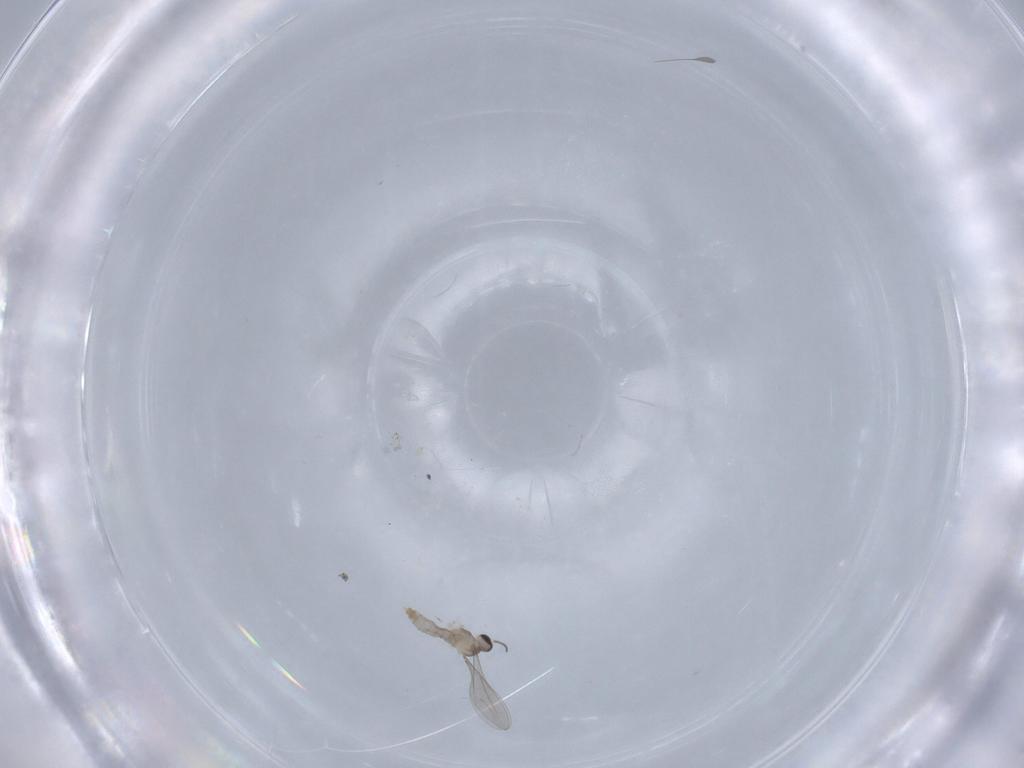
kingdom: Animalia
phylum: Arthropoda
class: Insecta
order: Diptera
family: Cecidomyiidae
